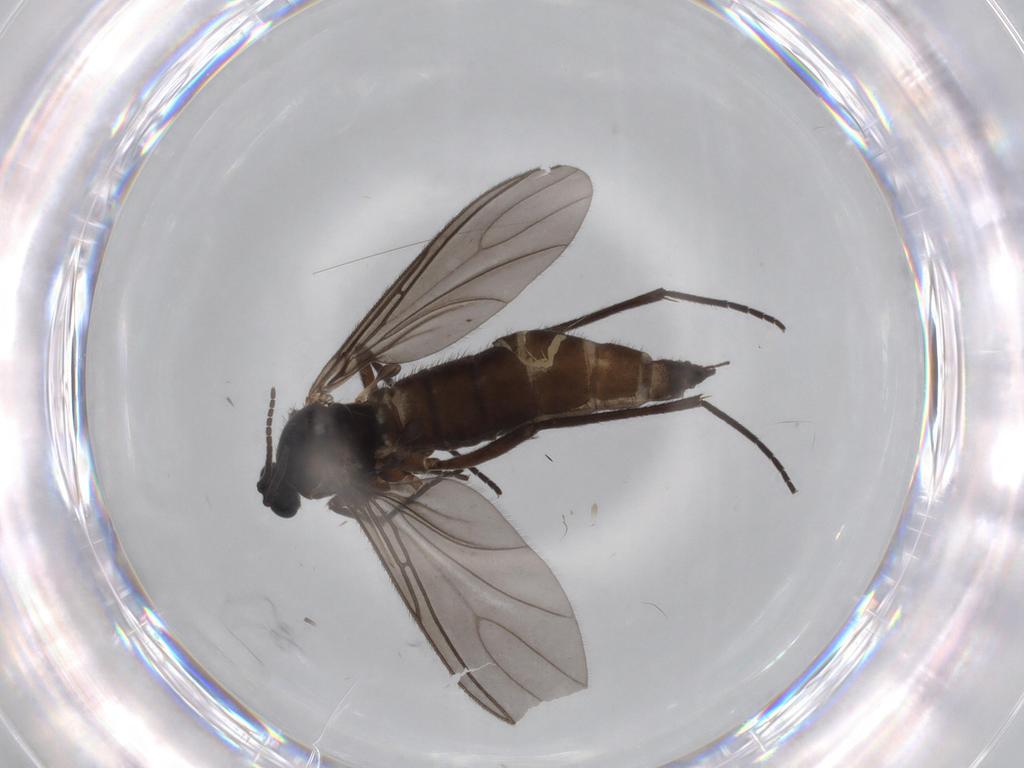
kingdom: Animalia
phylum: Arthropoda
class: Insecta
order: Diptera
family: Sciaridae
